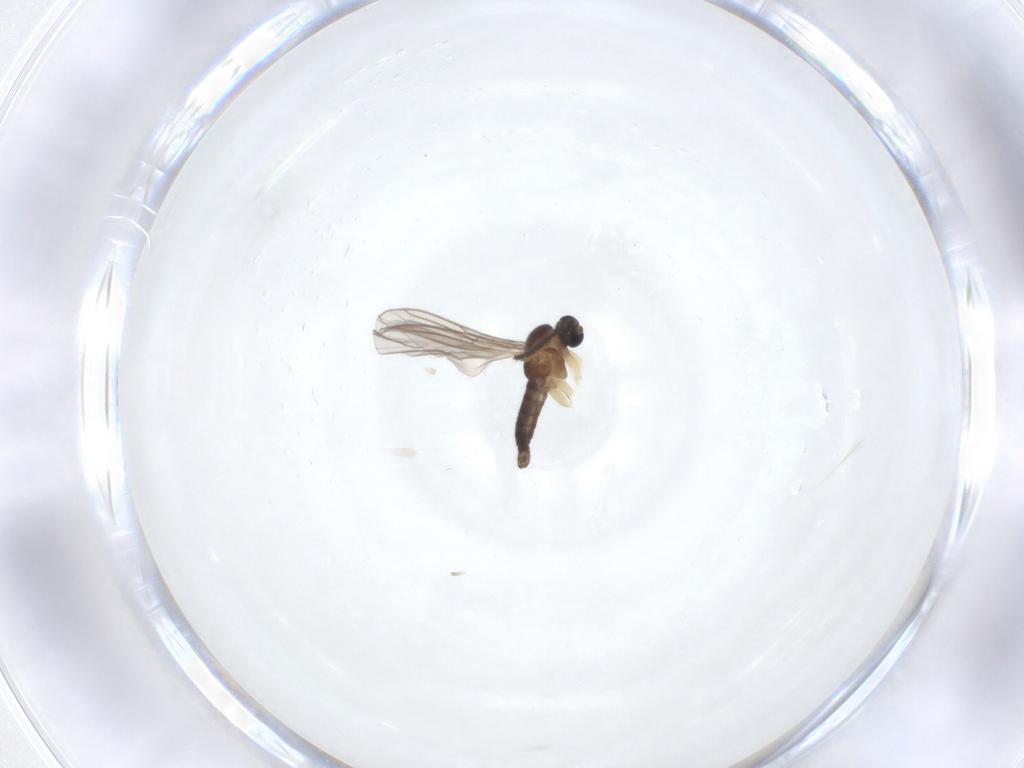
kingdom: Animalia
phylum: Arthropoda
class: Insecta
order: Diptera
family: Sciaridae
